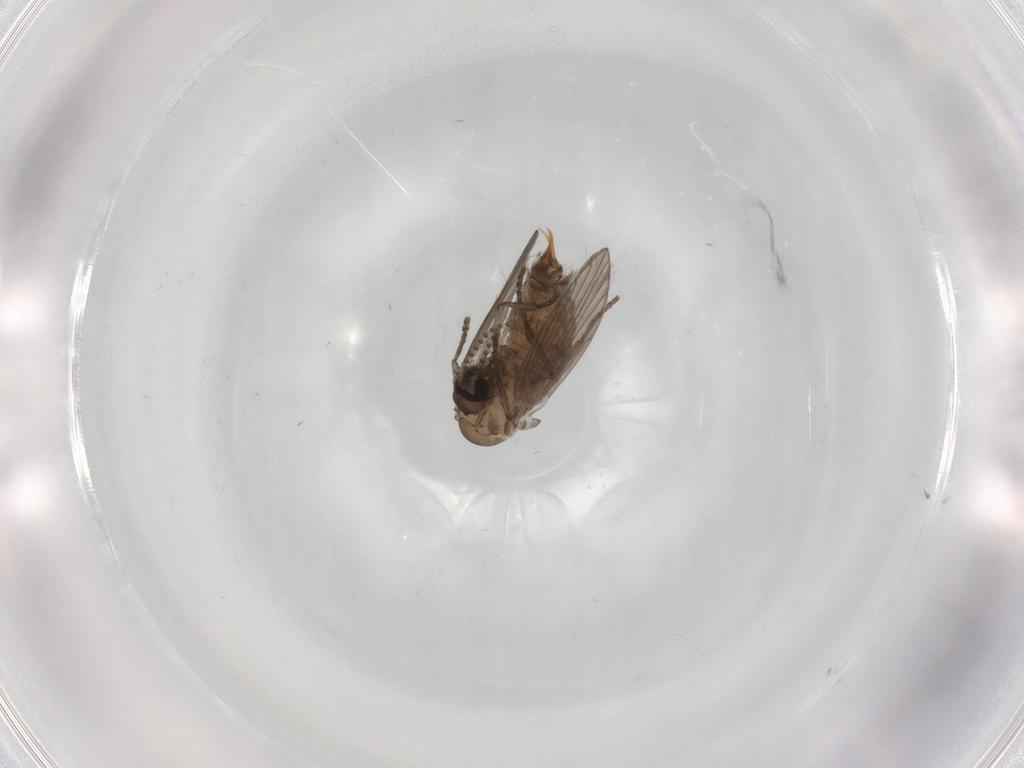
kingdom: Animalia
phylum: Arthropoda
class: Insecta
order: Diptera
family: Psychodidae
